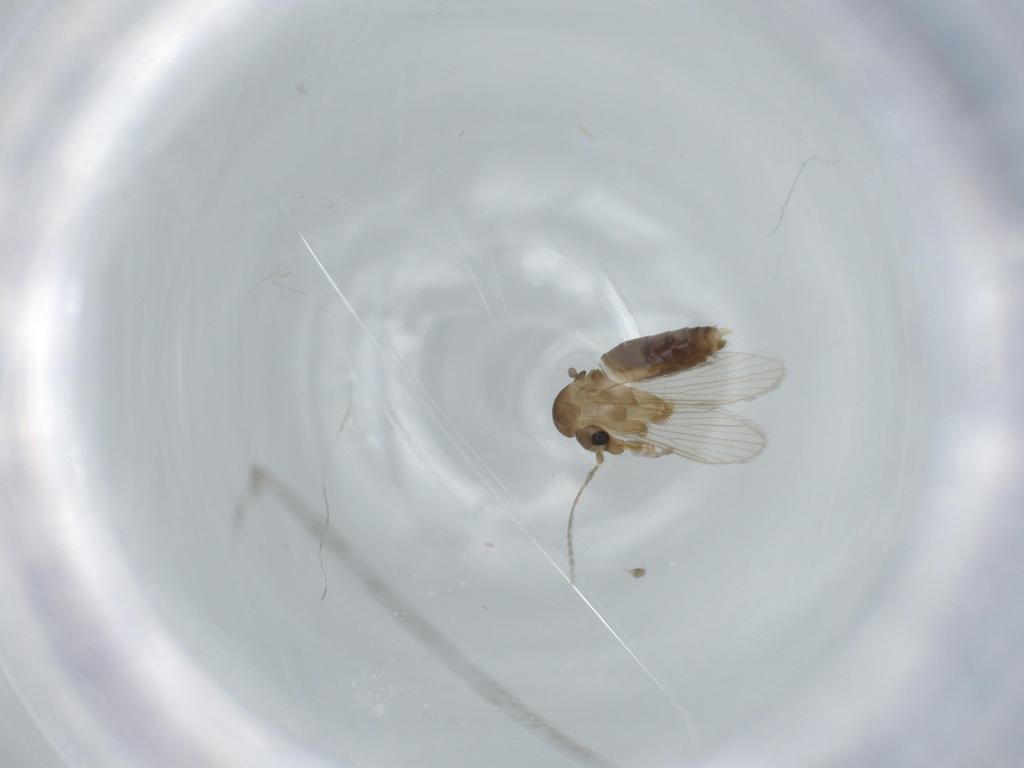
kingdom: Animalia
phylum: Arthropoda
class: Insecta
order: Diptera
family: Psychodidae
